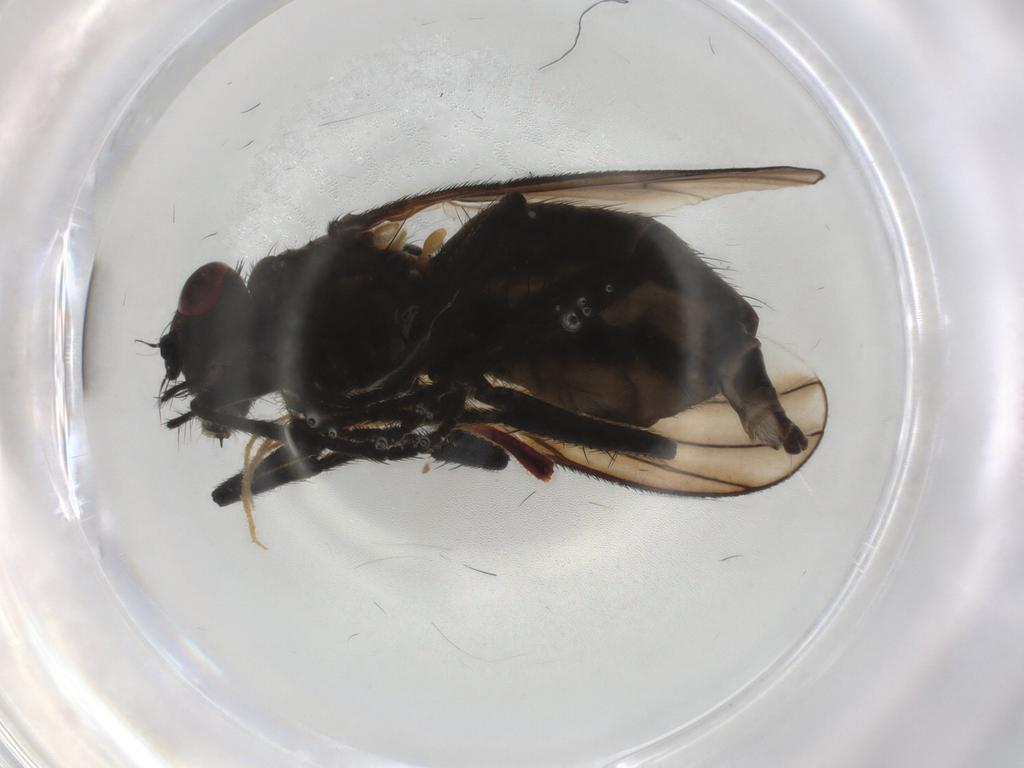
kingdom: Animalia
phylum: Arthropoda
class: Insecta
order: Diptera
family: Muscidae
